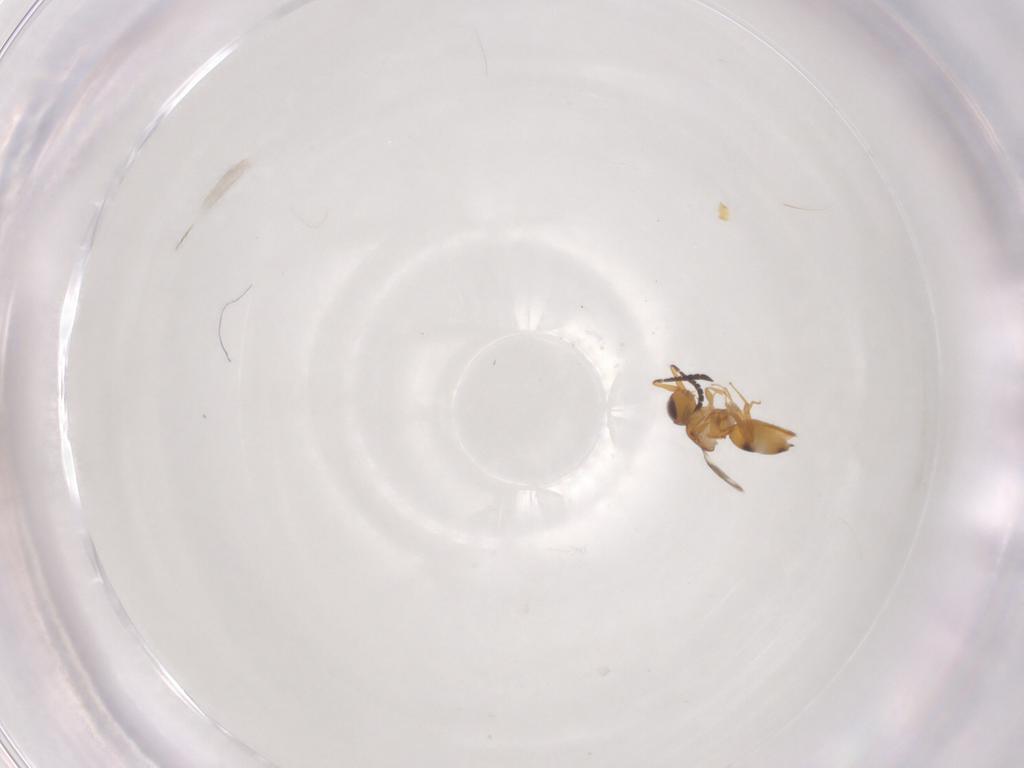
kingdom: Animalia
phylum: Arthropoda
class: Insecta
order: Hymenoptera
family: Ceraphronidae
